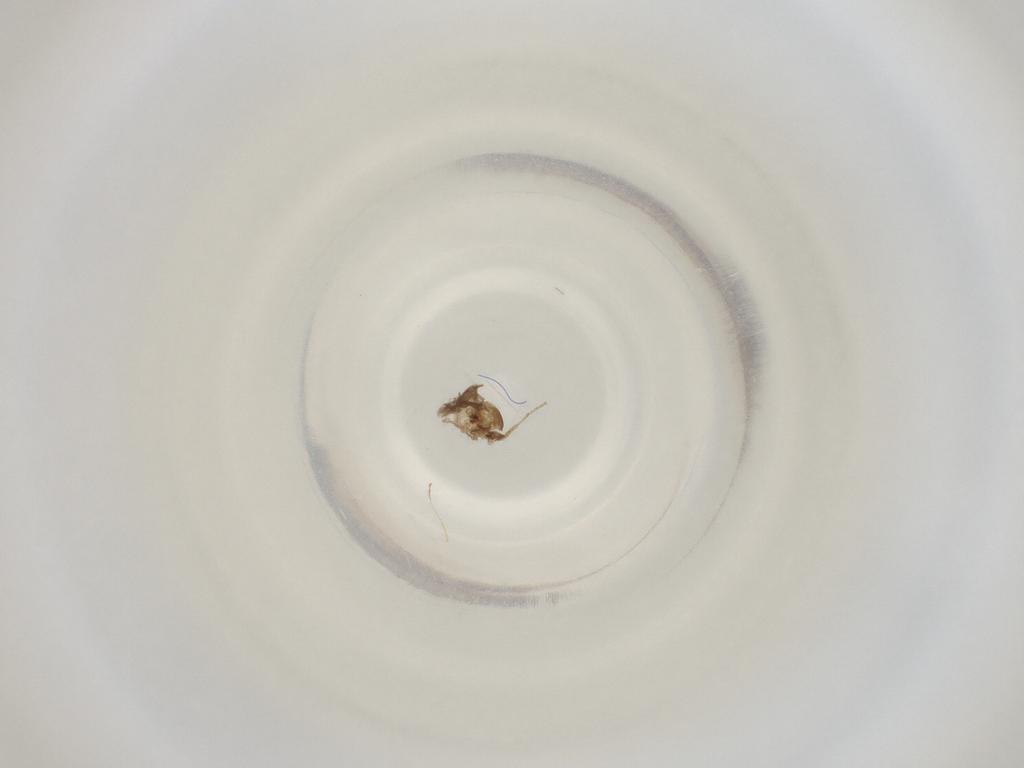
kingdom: Animalia
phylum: Arthropoda
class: Insecta
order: Diptera
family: Cecidomyiidae
